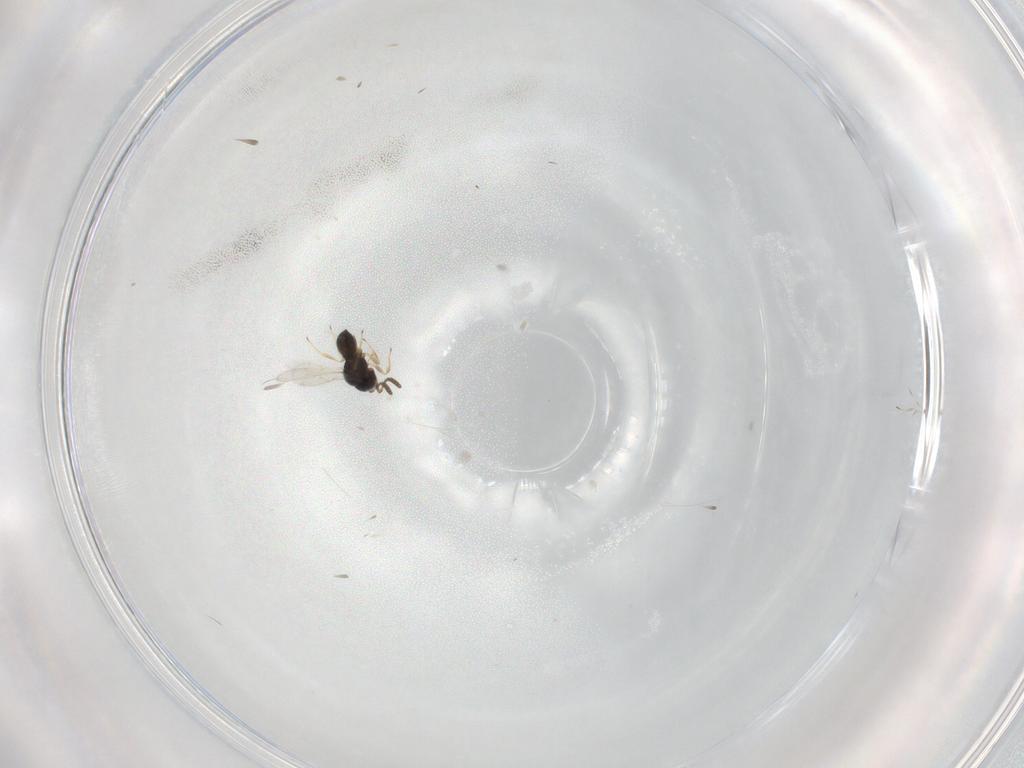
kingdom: Animalia
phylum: Arthropoda
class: Insecta
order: Hymenoptera
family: Scelionidae
